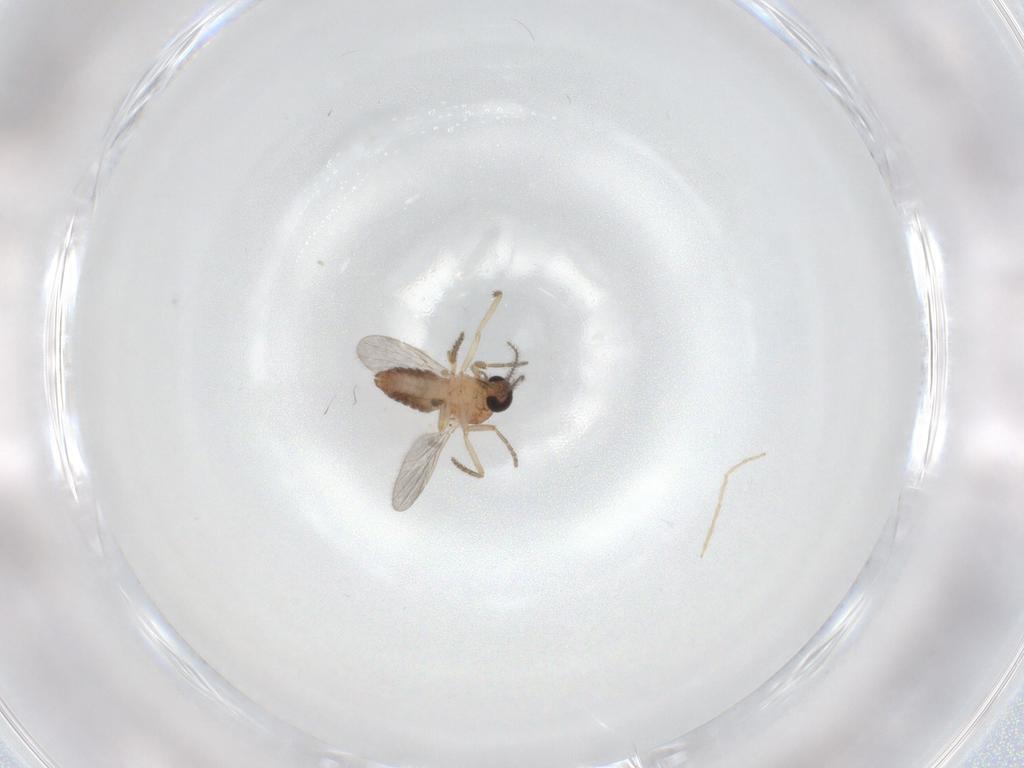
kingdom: Animalia
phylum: Arthropoda
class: Insecta
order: Diptera
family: Ceratopogonidae
